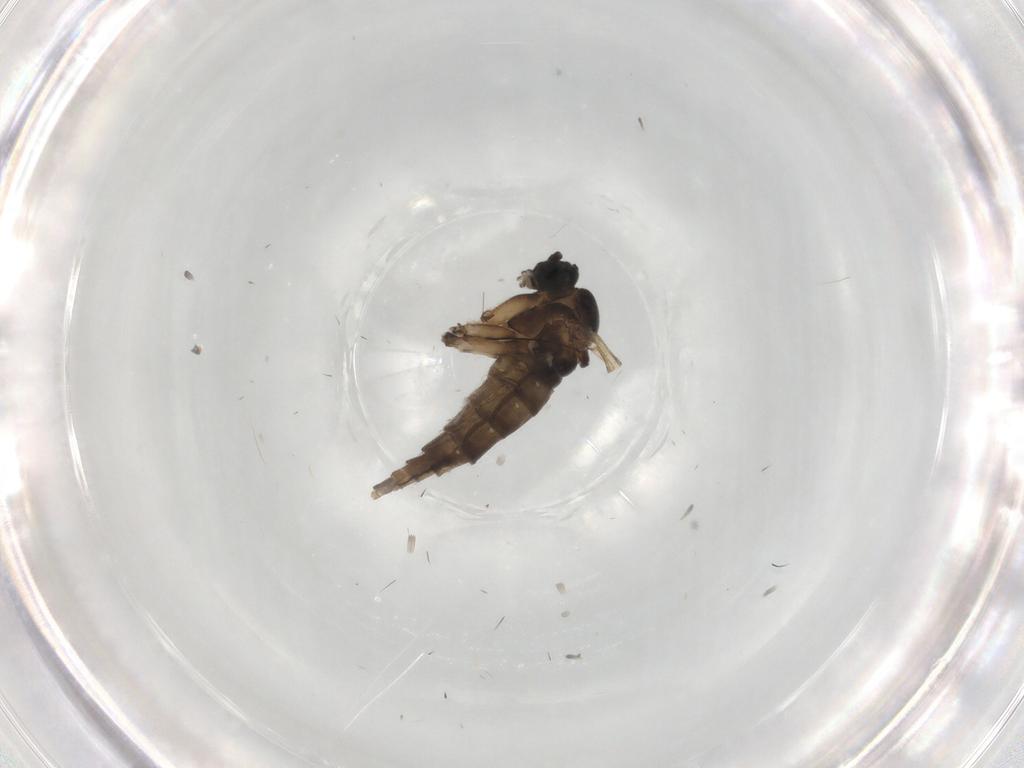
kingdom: Animalia
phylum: Arthropoda
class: Insecta
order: Diptera
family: Sciaridae
